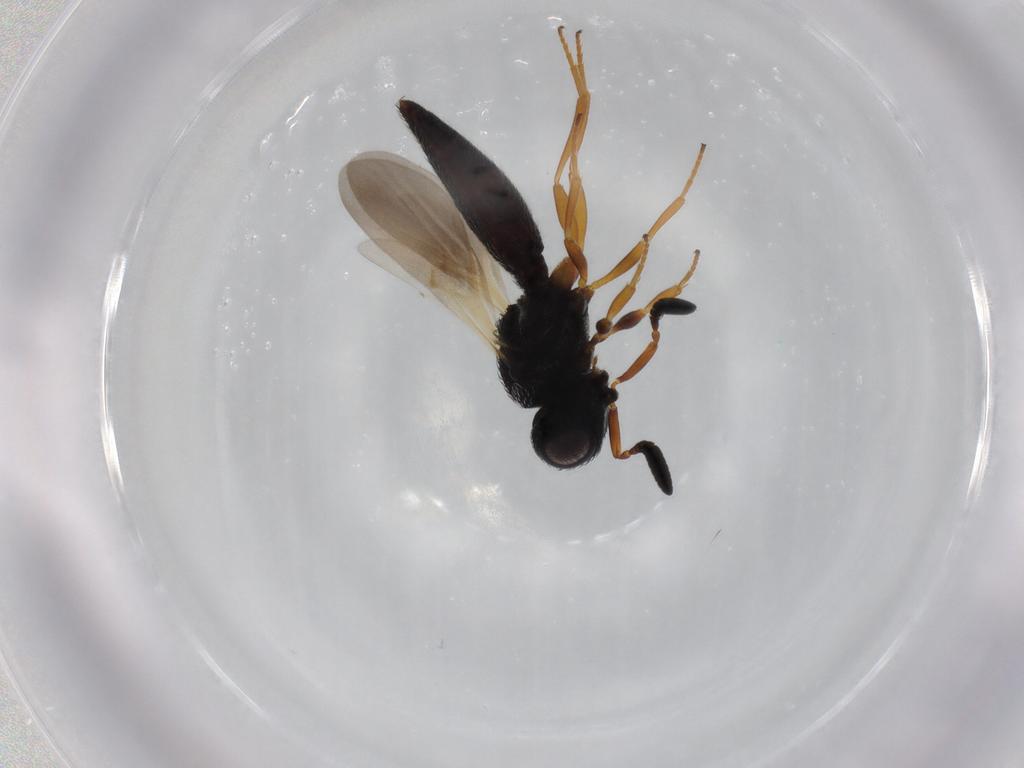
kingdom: Animalia
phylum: Arthropoda
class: Insecta
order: Hymenoptera
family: Scelionidae
